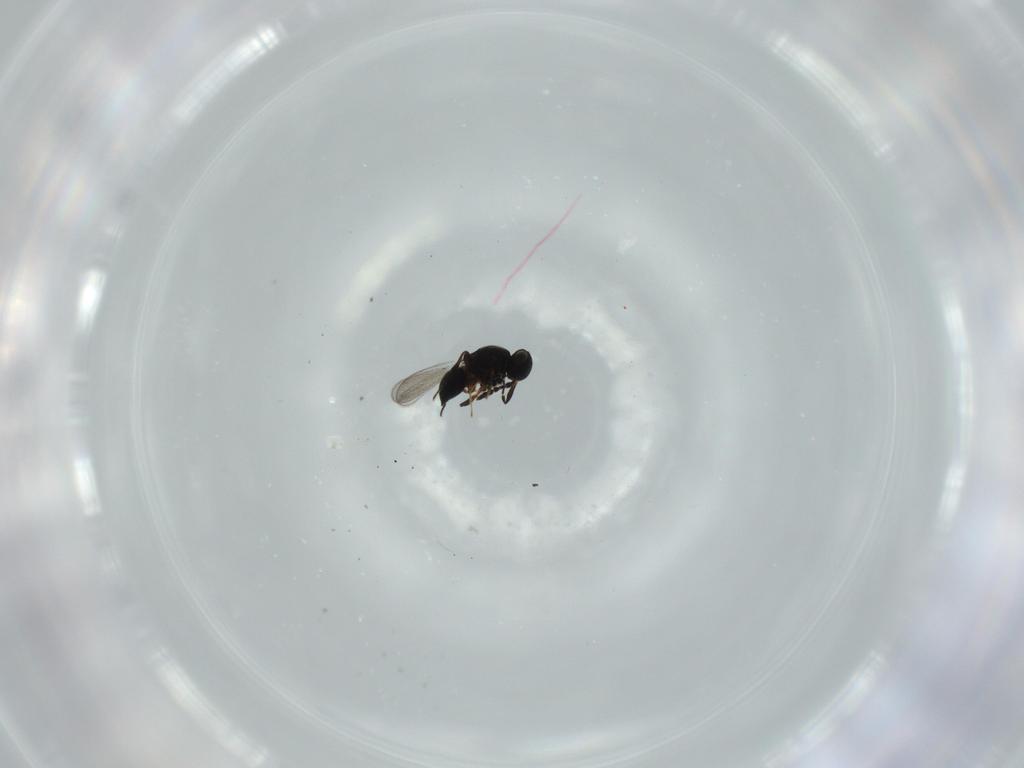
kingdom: Animalia
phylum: Arthropoda
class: Insecta
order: Hymenoptera
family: Platygastridae
